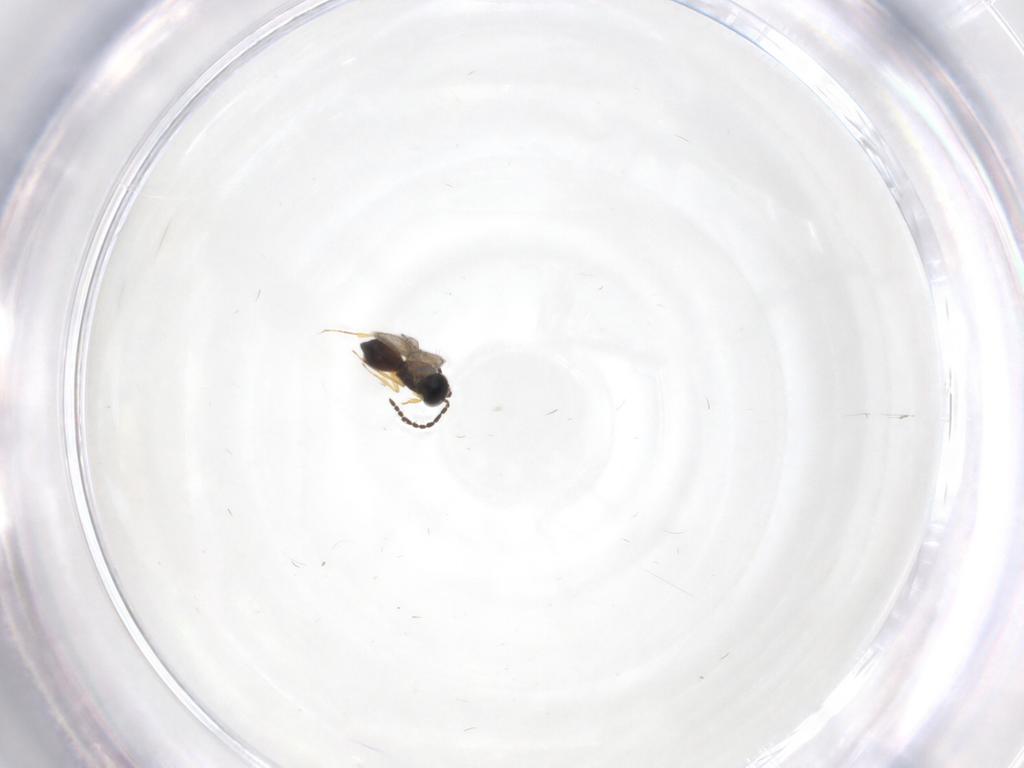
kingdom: Animalia
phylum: Arthropoda
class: Insecta
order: Hymenoptera
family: Scelionidae
